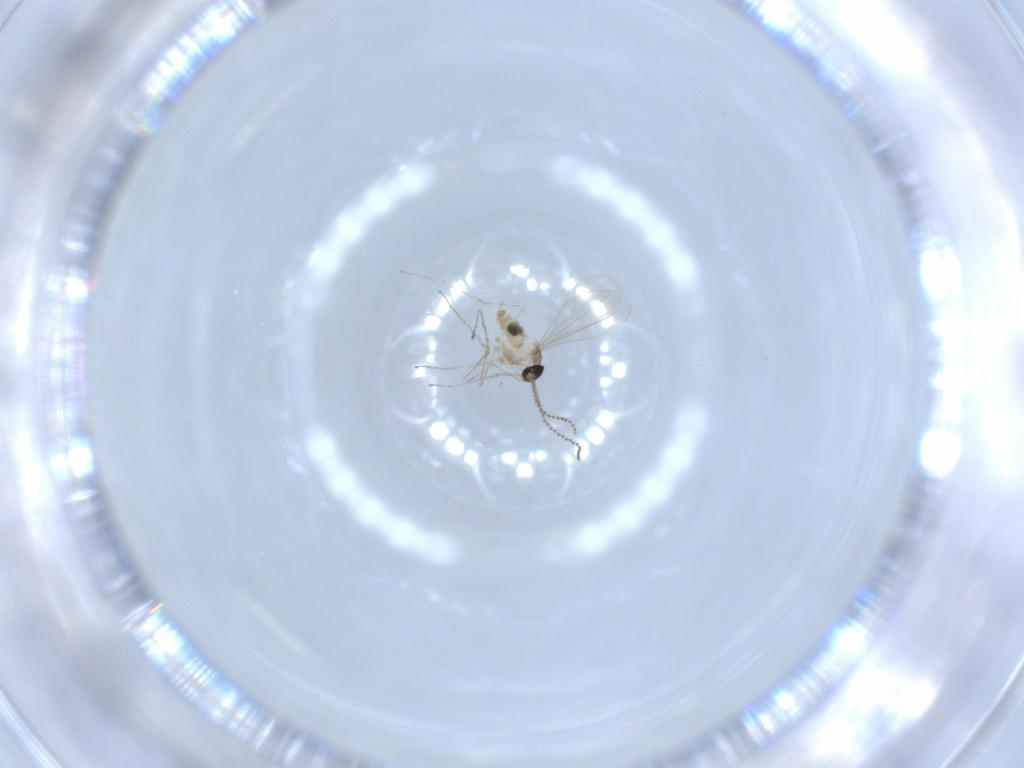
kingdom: Animalia
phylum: Arthropoda
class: Insecta
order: Diptera
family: Cecidomyiidae
